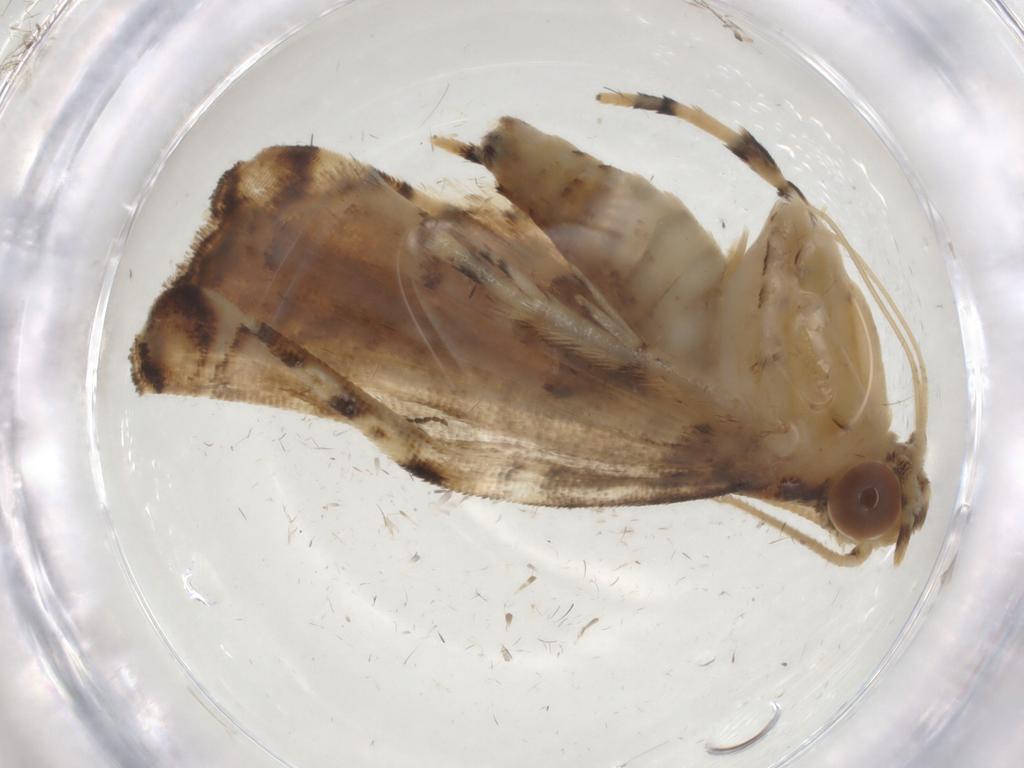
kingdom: Animalia
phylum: Arthropoda
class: Insecta
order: Lepidoptera
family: Crambidae
